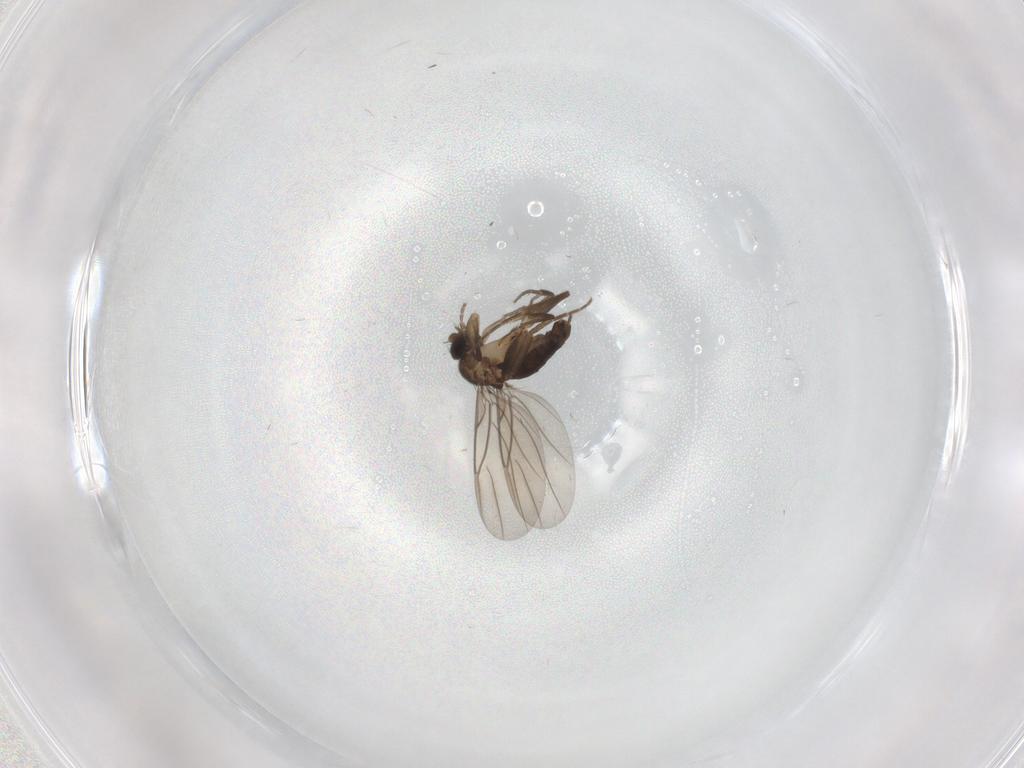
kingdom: Animalia
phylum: Arthropoda
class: Insecta
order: Diptera
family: Phoridae
